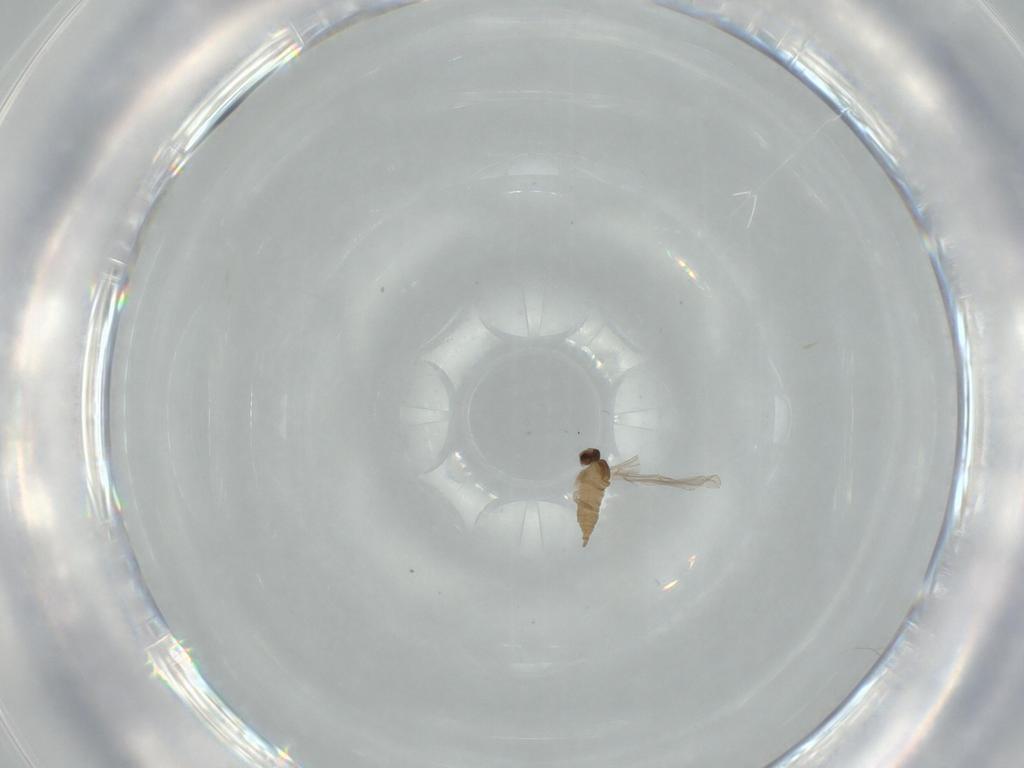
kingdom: Animalia
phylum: Arthropoda
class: Insecta
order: Diptera
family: Cecidomyiidae
